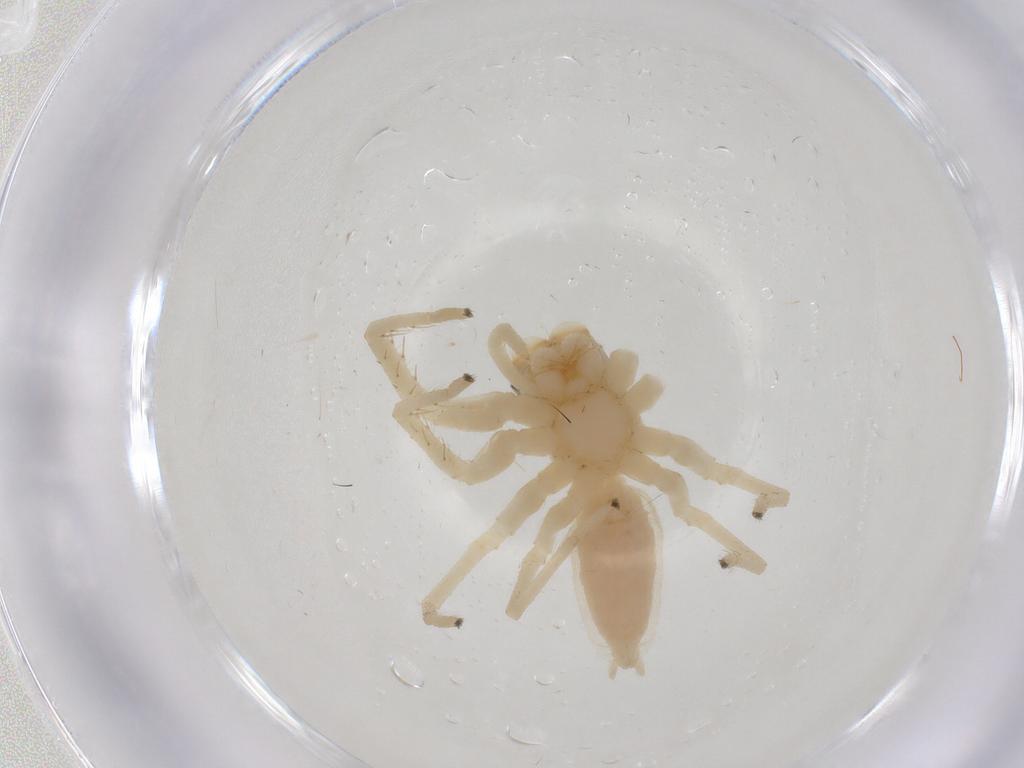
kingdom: Animalia
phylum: Arthropoda
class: Arachnida
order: Araneae
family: Salticidae
